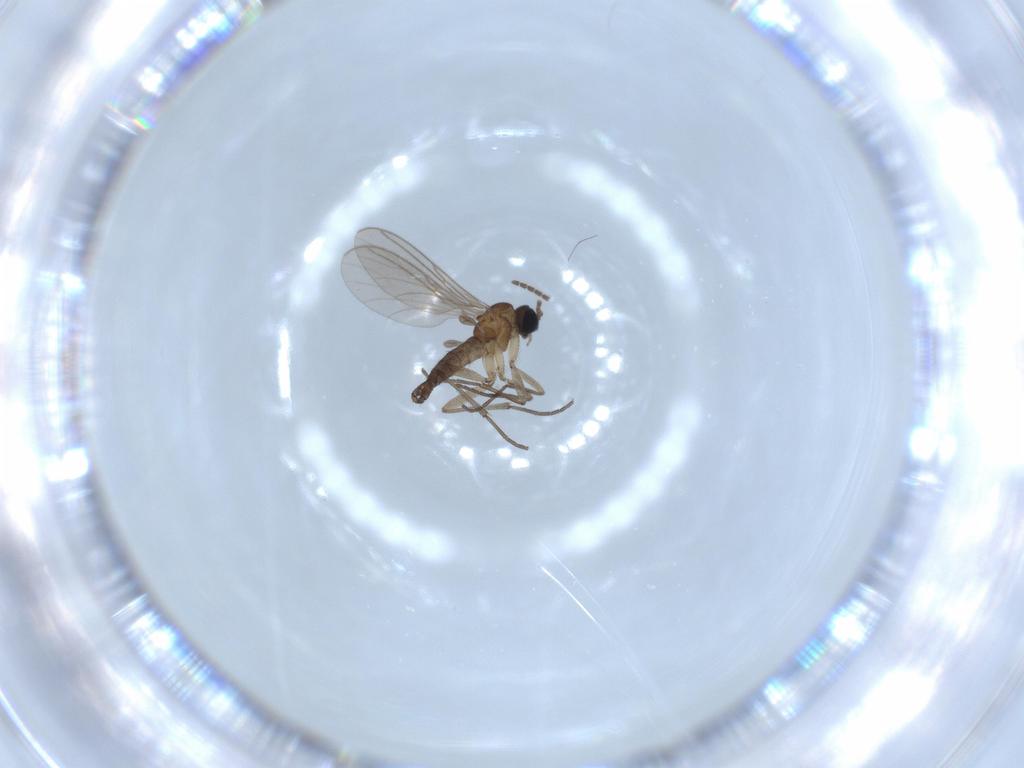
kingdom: Animalia
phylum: Arthropoda
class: Insecta
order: Diptera
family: Sciaridae
